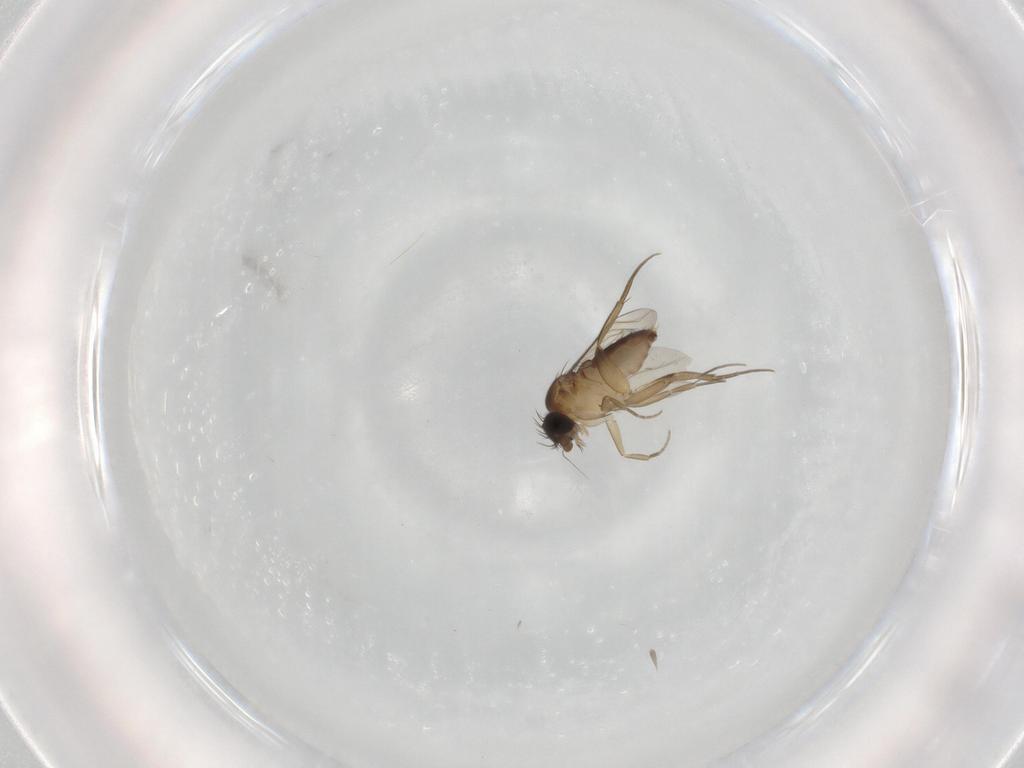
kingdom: Animalia
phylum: Arthropoda
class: Insecta
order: Diptera
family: Phoridae
